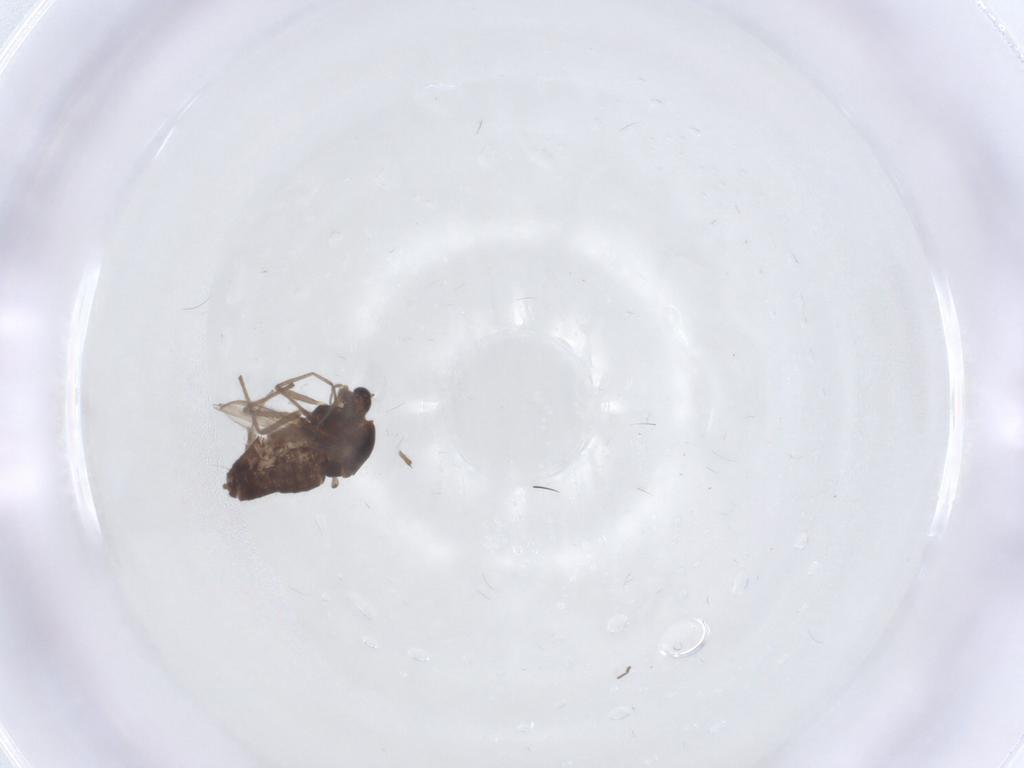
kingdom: Animalia
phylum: Arthropoda
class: Insecta
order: Diptera
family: Chironomidae
